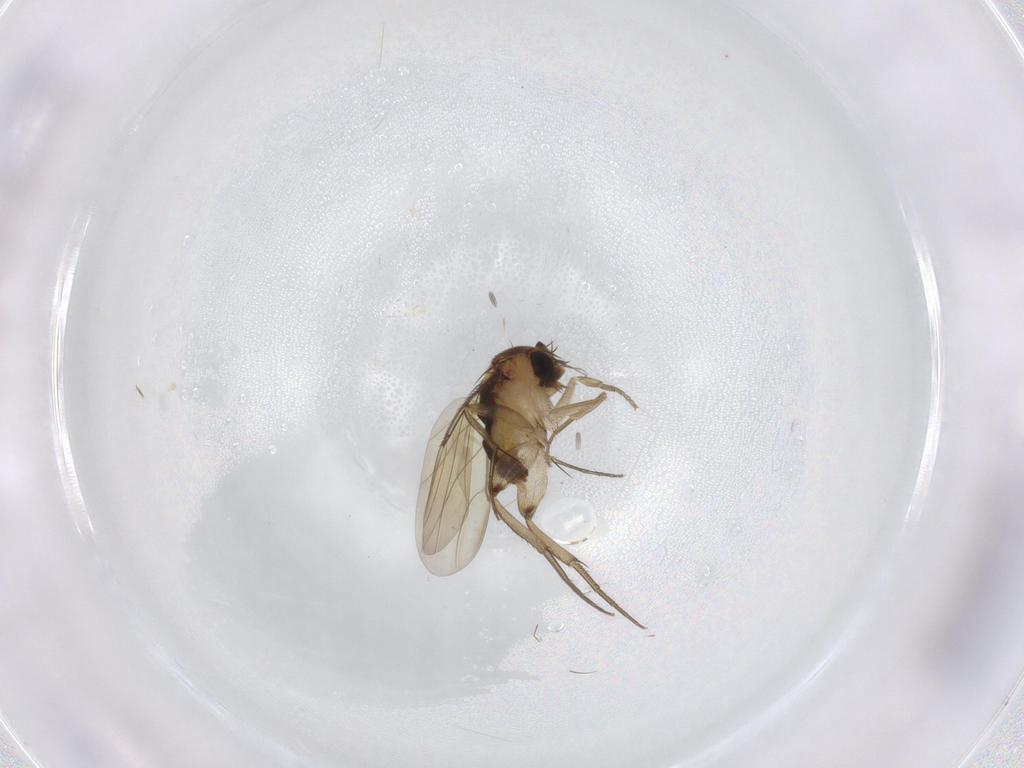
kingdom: Animalia
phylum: Arthropoda
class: Insecta
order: Diptera
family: Phoridae
